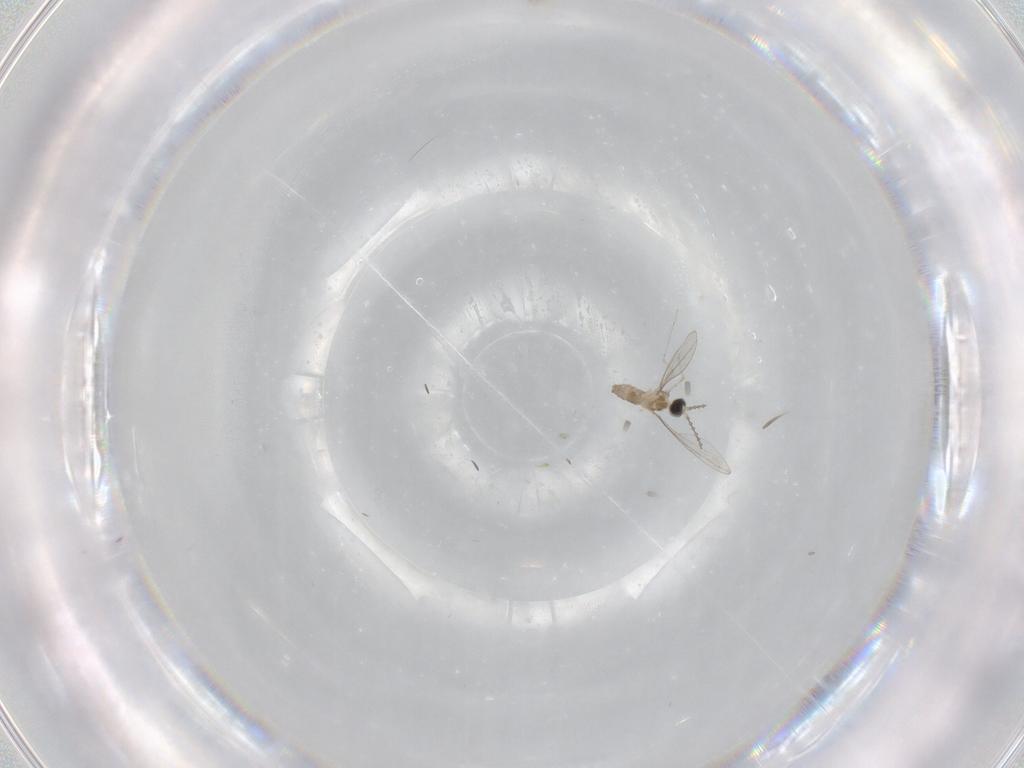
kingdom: Animalia
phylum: Arthropoda
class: Insecta
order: Diptera
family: Cecidomyiidae
